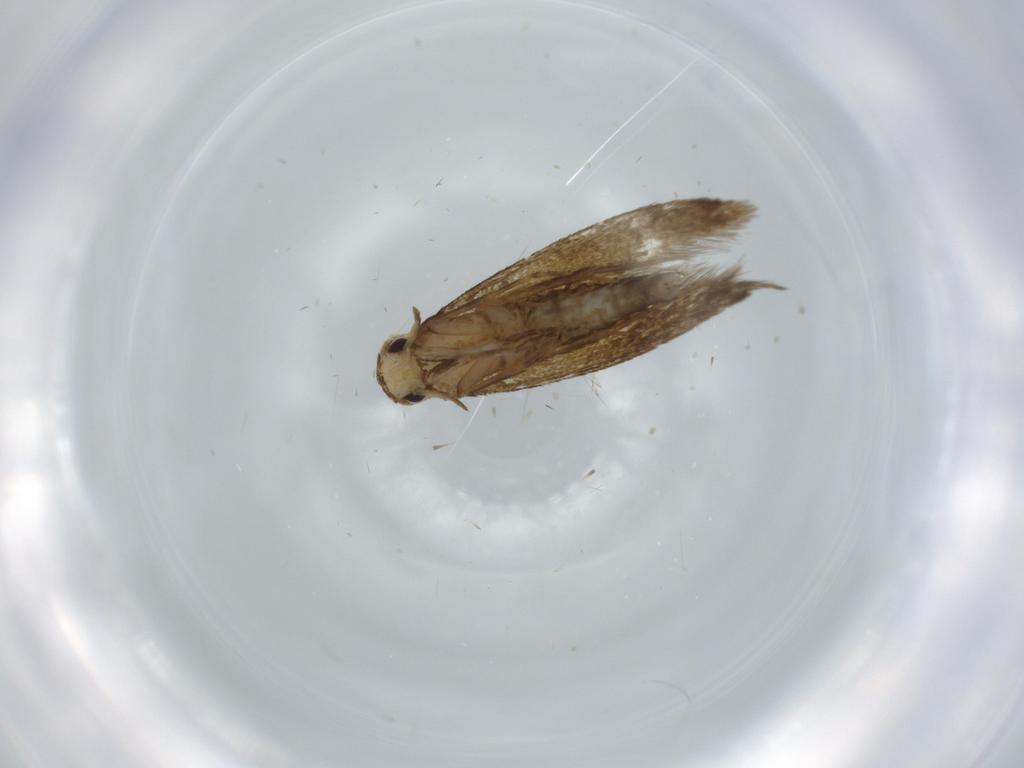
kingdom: Animalia
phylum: Arthropoda
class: Insecta
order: Lepidoptera
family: Tineidae
